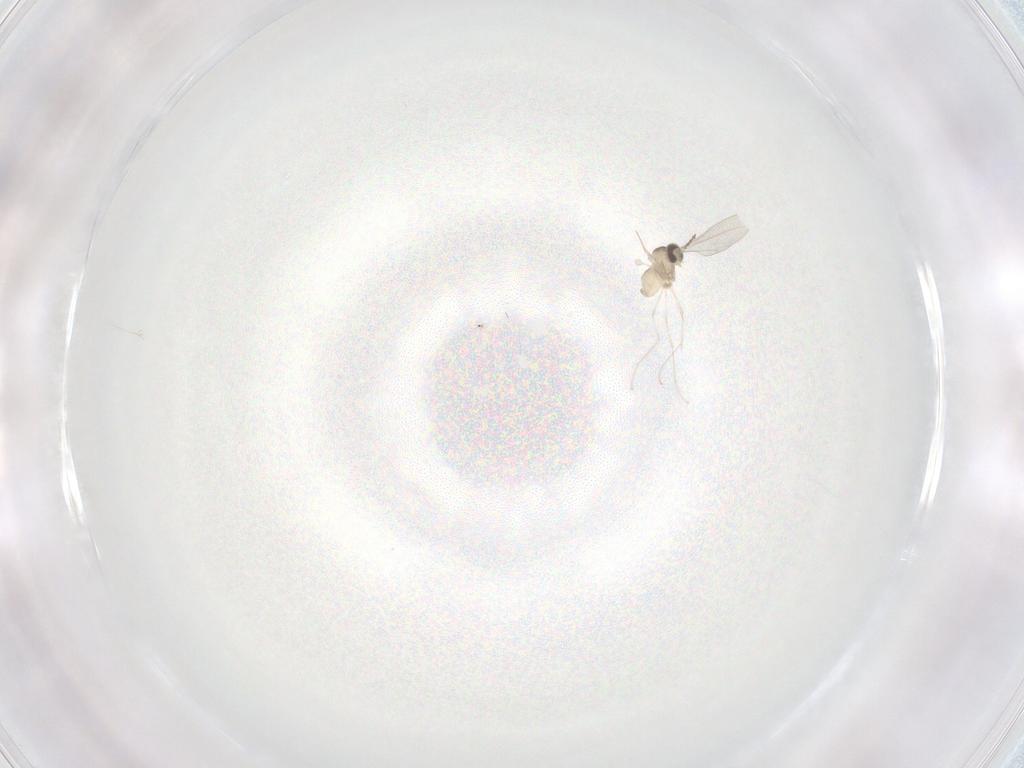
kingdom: Animalia
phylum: Arthropoda
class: Insecta
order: Diptera
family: Cecidomyiidae
